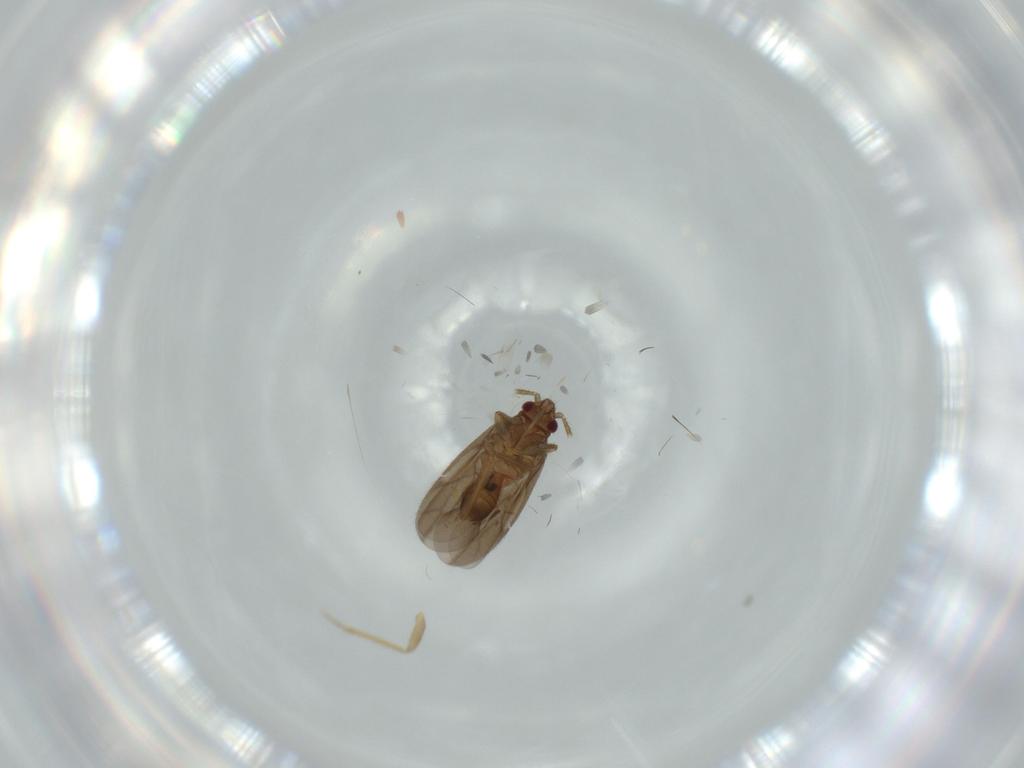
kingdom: Animalia
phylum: Arthropoda
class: Insecta
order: Hemiptera
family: Ceratocombidae
